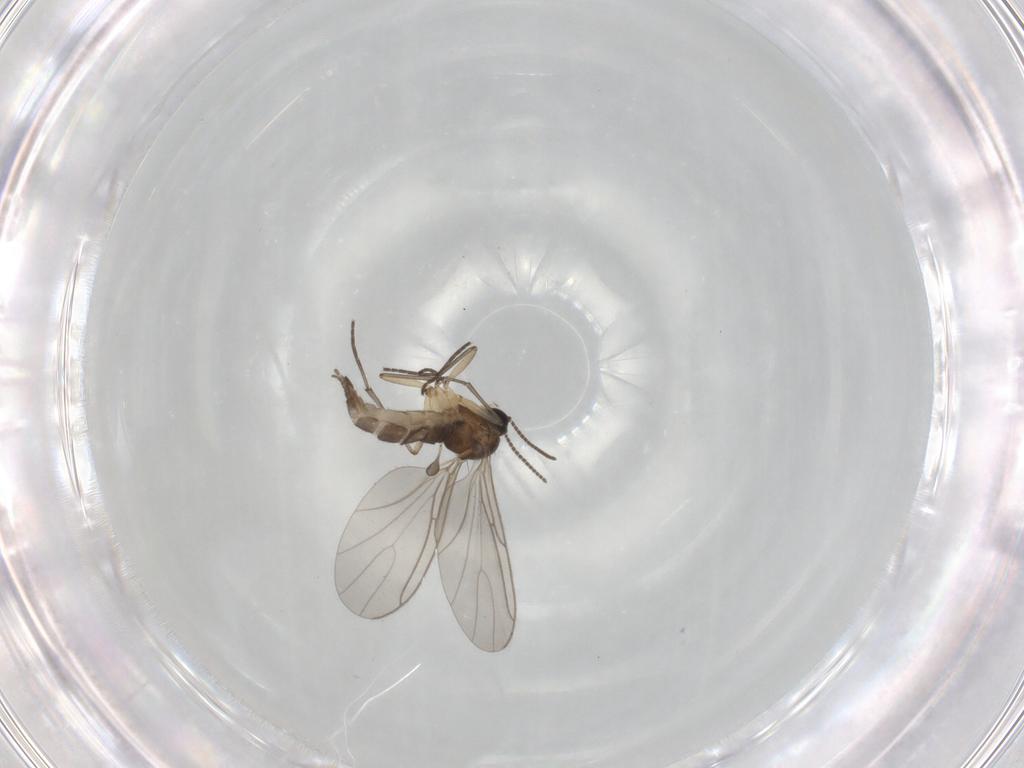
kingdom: Animalia
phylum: Arthropoda
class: Insecta
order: Diptera
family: Sciaridae
